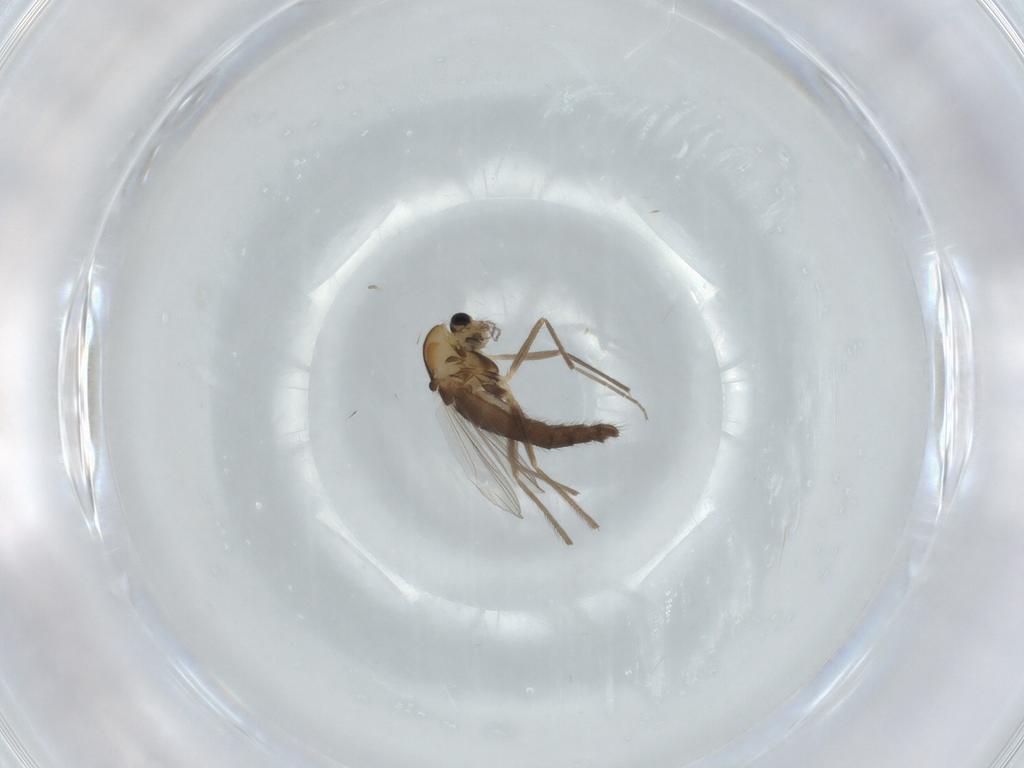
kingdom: Animalia
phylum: Arthropoda
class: Insecta
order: Diptera
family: Chironomidae
